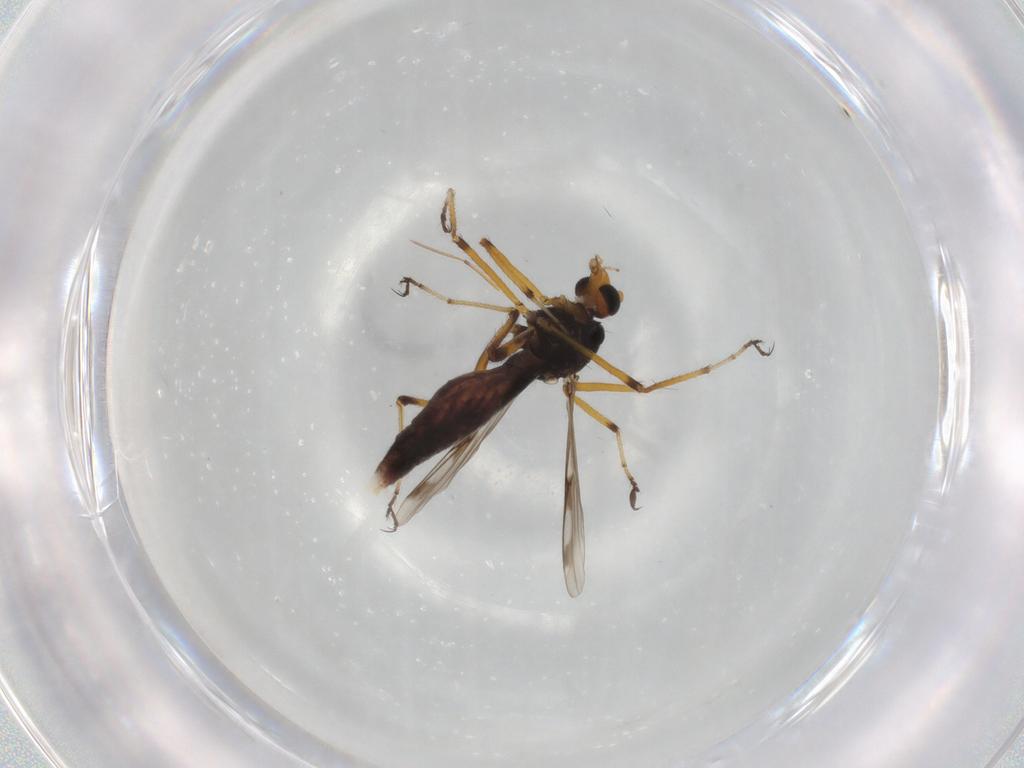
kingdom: Animalia
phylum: Arthropoda
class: Insecta
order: Diptera
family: Ceratopogonidae
